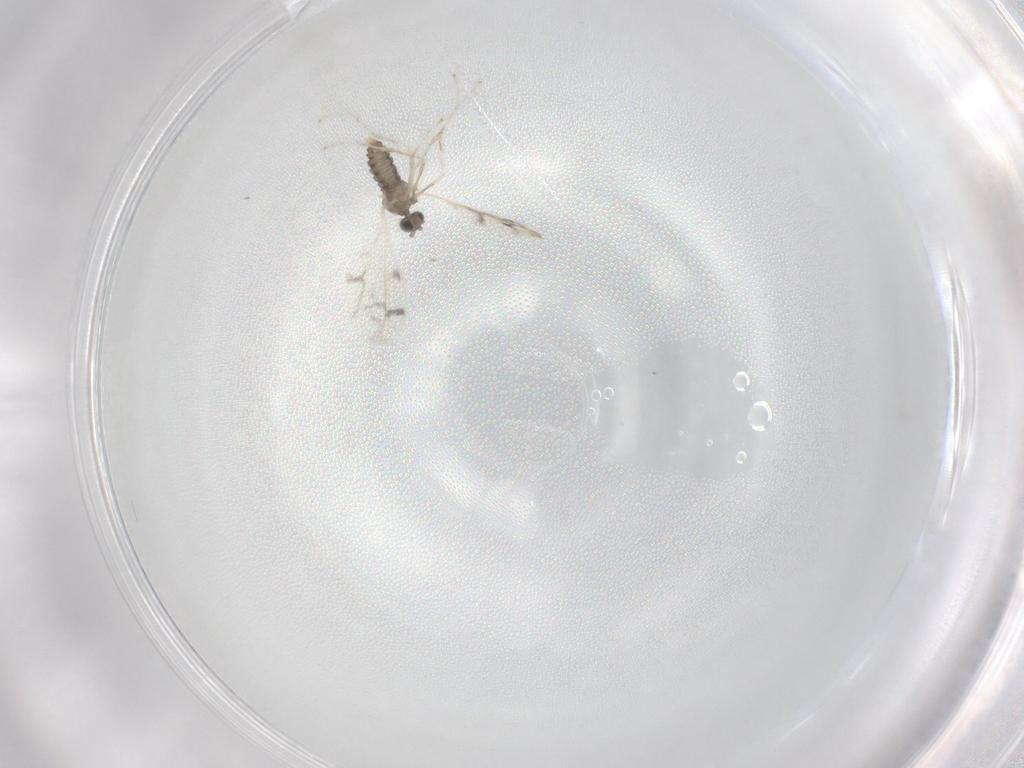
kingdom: Animalia
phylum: Arthropoda
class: Insecta
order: Diptera
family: Cecidomyiidae
